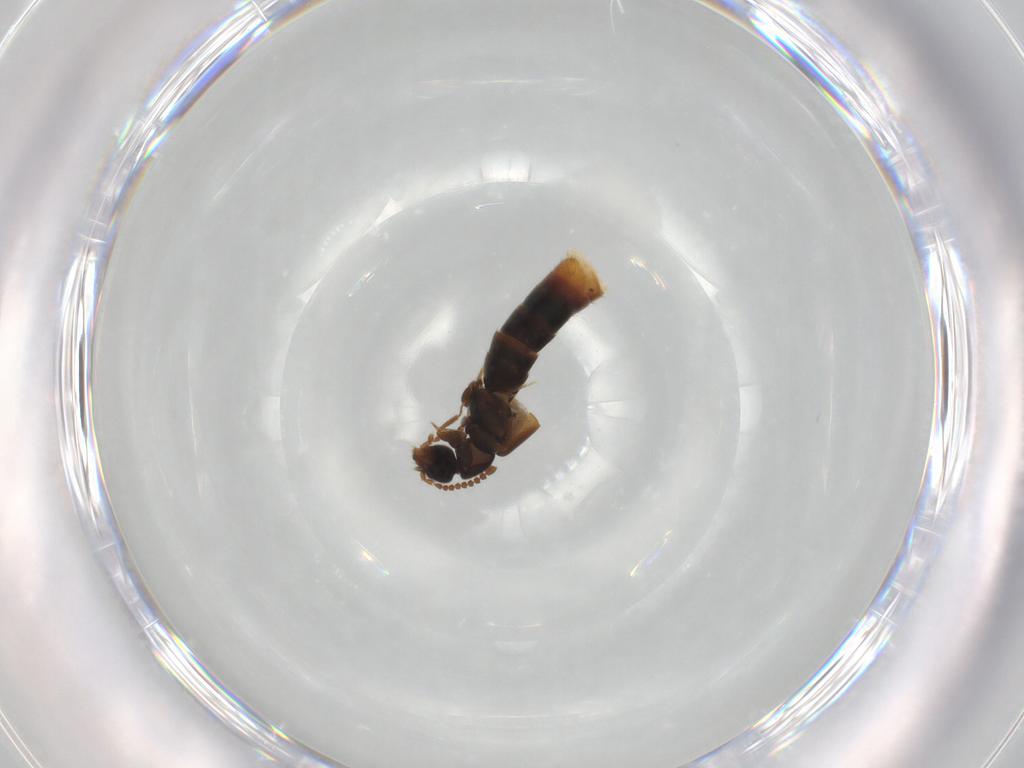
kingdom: Animalia
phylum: Arthropoda
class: Insecta
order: Coleoptera
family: Staphylinidae
